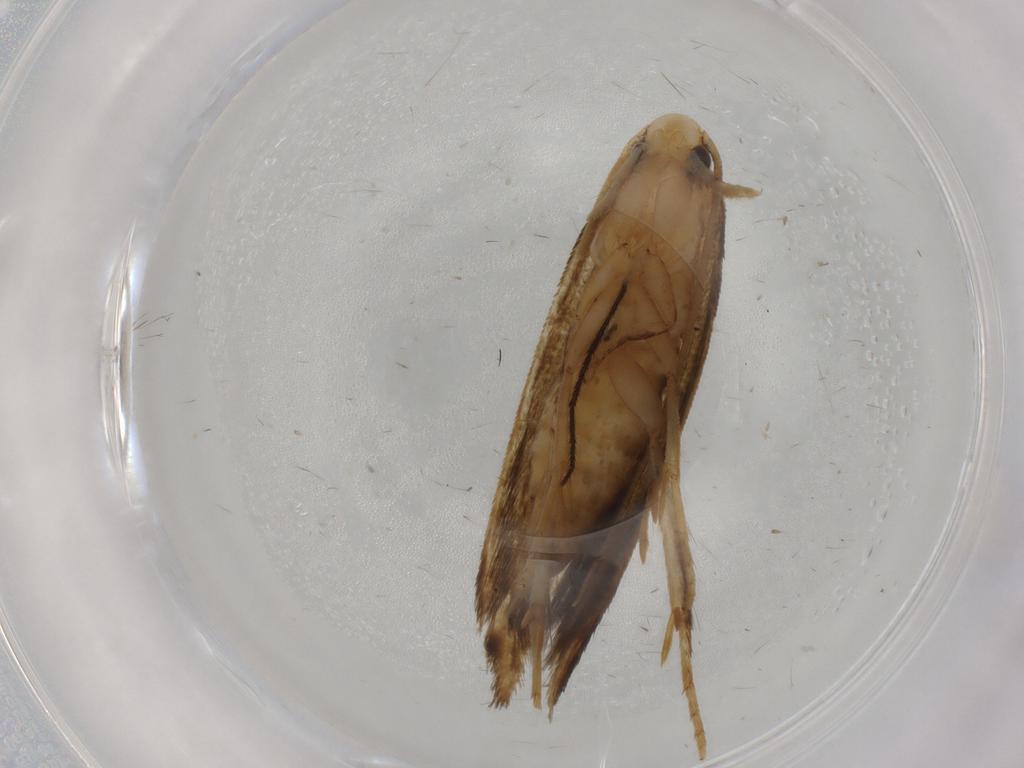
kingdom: Animalia
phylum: Arthropoda
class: Insecta
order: Lepidoptera
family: Tineidae
